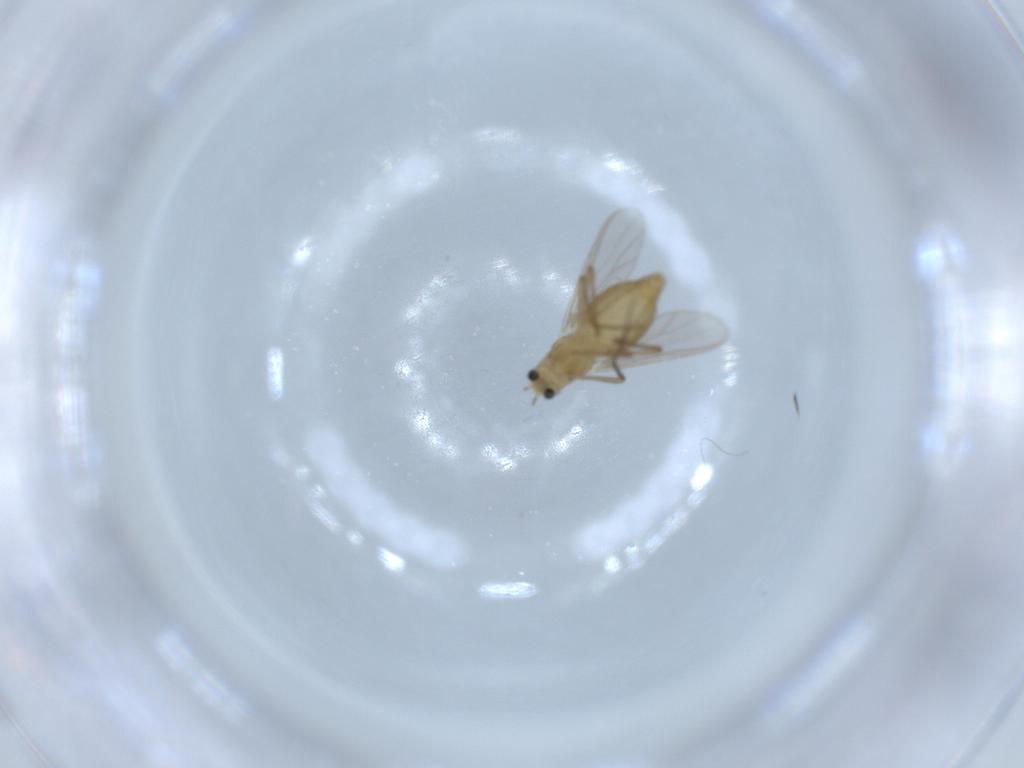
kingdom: Animalia
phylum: Arthropoda
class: Insecta
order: Diptera
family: Chironomidae
